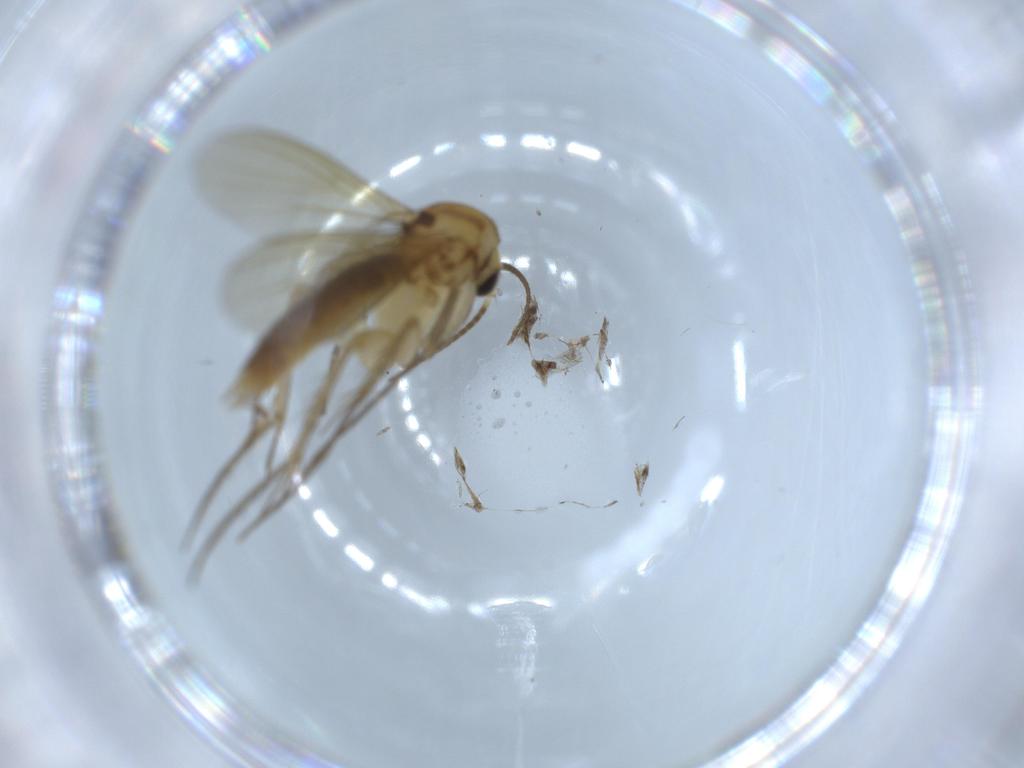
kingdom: Animalia
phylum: Arthropoda
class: Insecta
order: Diptera
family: Mycetophilidae
